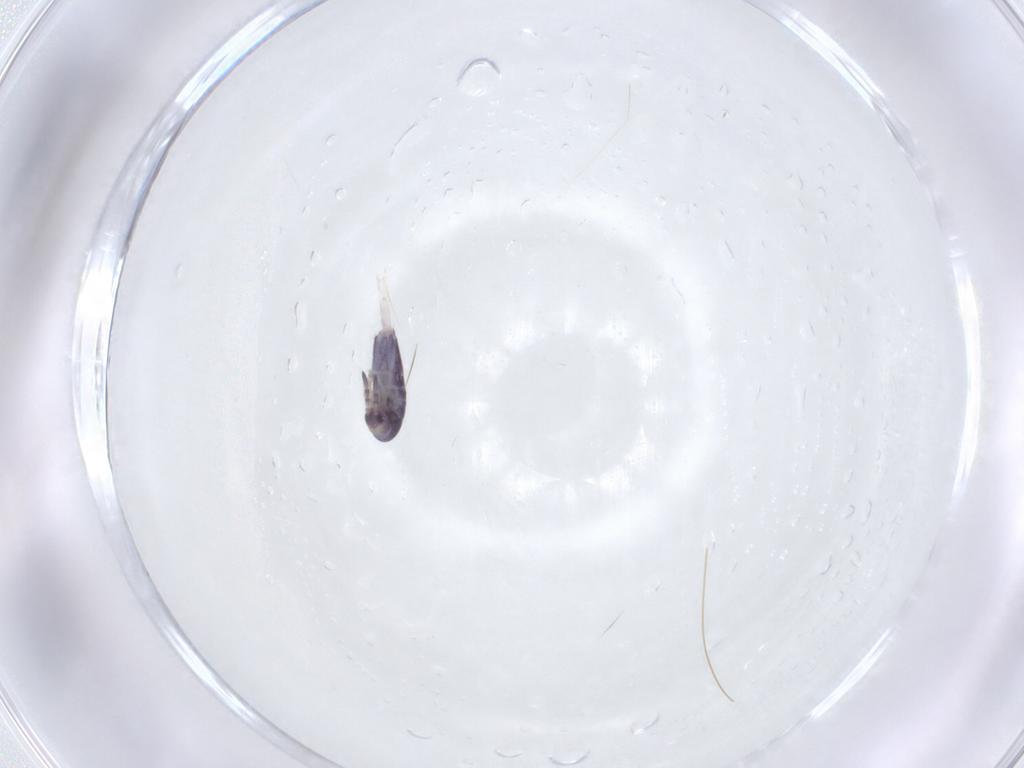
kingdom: Animalia
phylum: Arthropoda
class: Collembola
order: Entomobryomorpha
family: Entomobryidae
